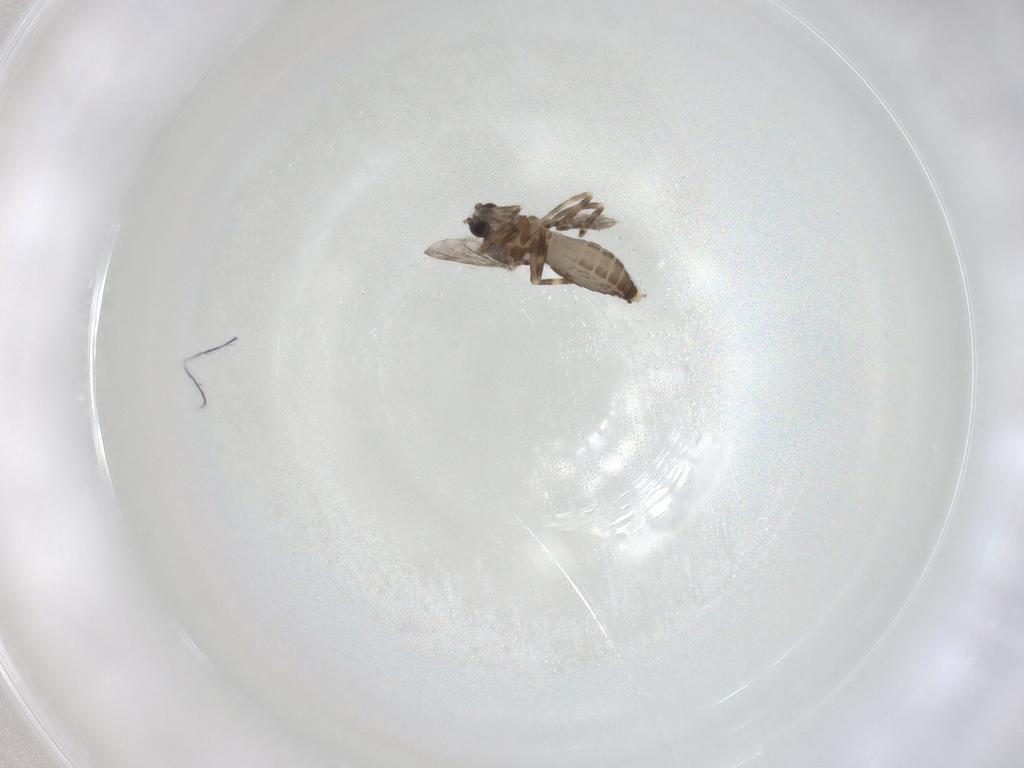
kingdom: Animalia
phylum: Arthropoda
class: Insecta
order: Diptera
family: Ceratopogonidae
